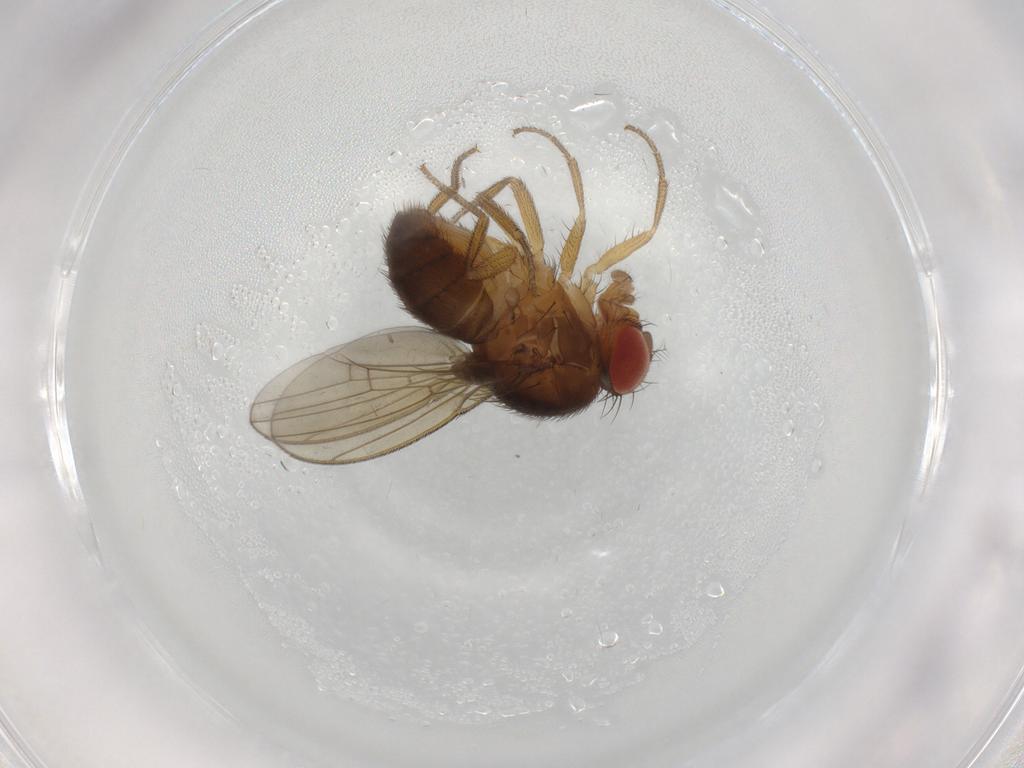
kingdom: Animalia
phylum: Arthropoda
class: Insecta
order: Diptera
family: Drosophilidae
